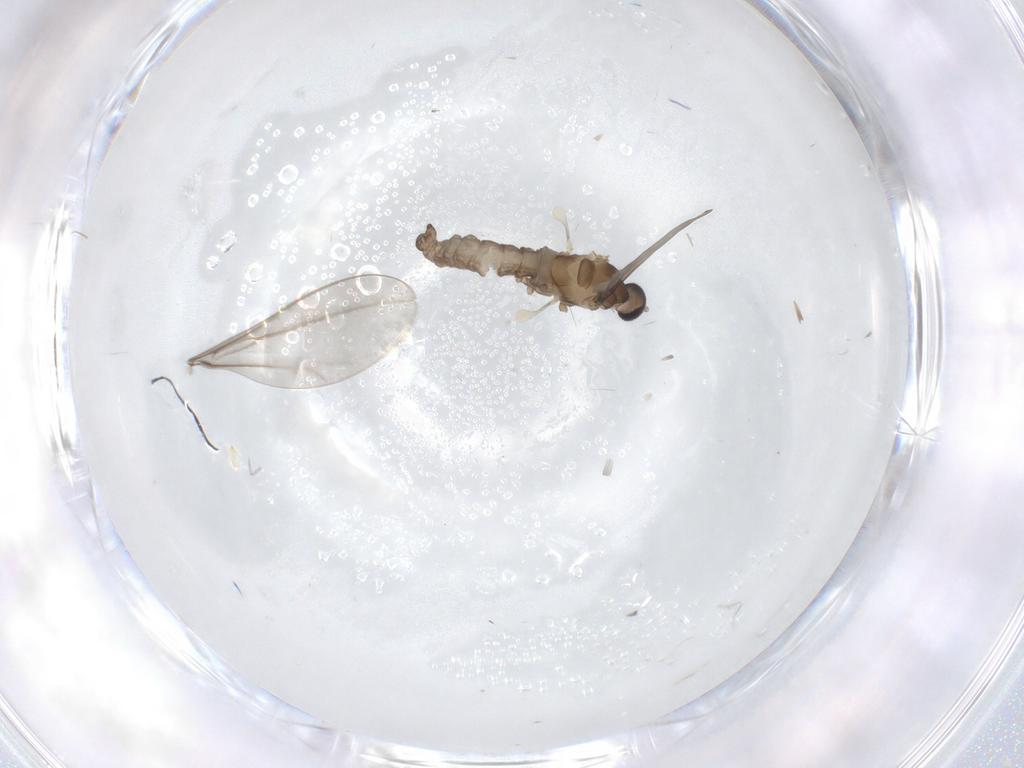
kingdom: Animalia
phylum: Arthropoda
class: Insecta
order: Diptera
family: Cecidomyiidae
